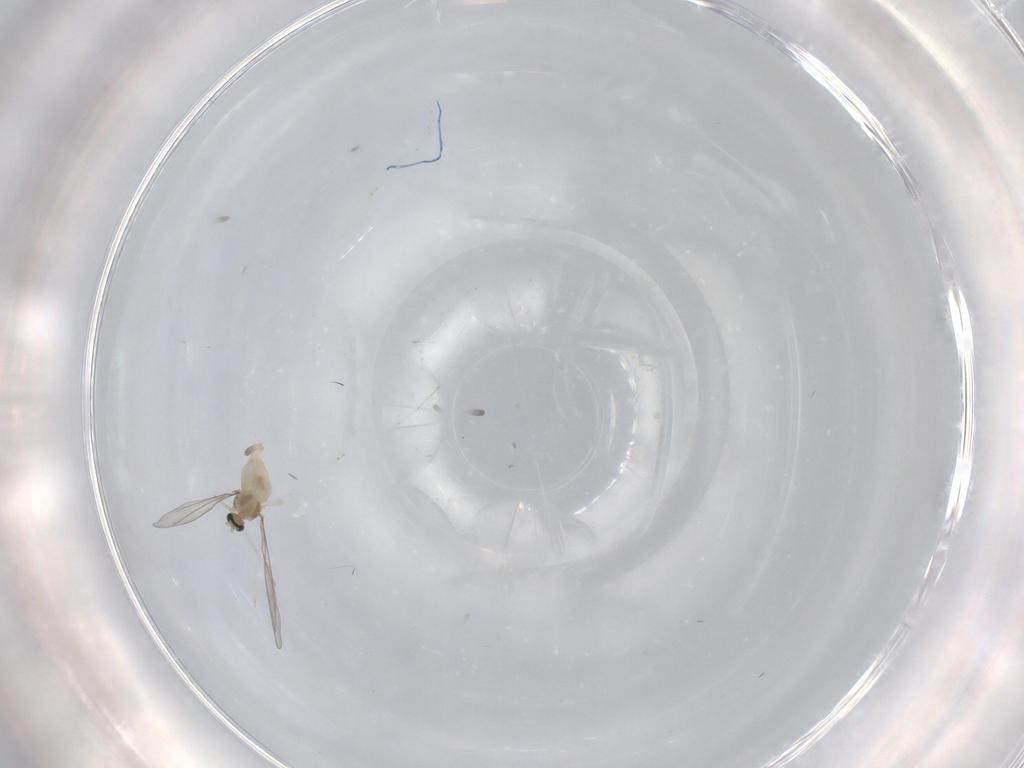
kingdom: Animalia
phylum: Arthropoda
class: Insecta
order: Diptera
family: Cecidomyiidae
